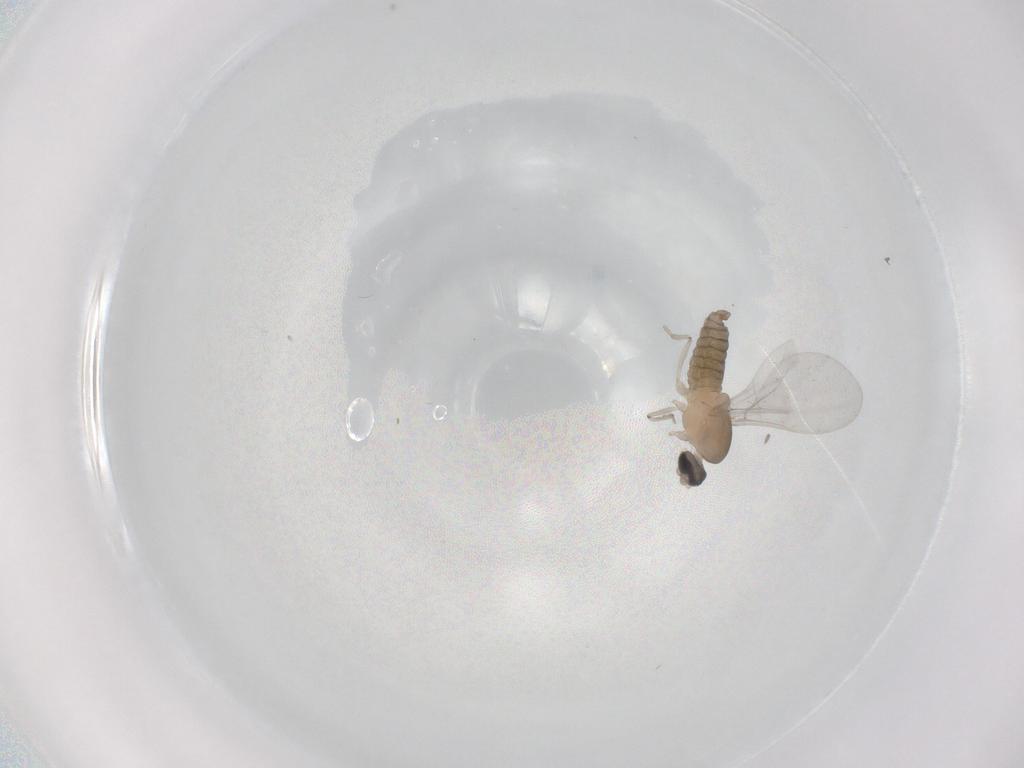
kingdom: Animalia
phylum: Arthropoda
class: Insecta
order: Diptera
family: Cecidomyiidae
